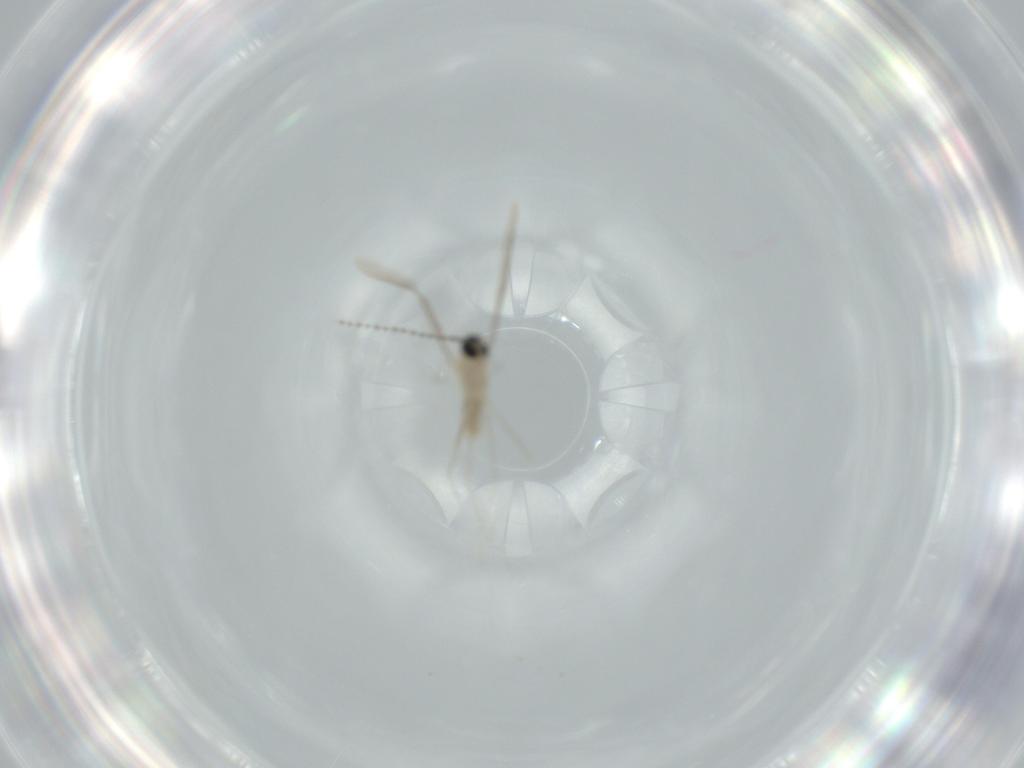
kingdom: Animalia
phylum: Arthropoda
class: Insecta
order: Diptera
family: Cecidomyiidae
